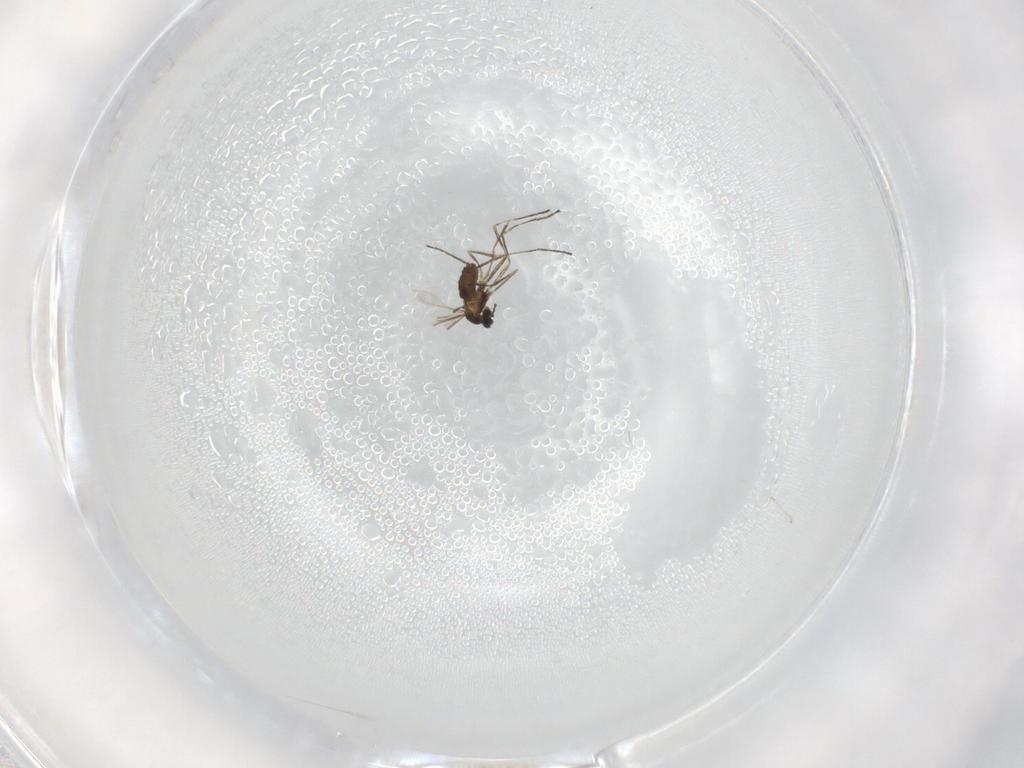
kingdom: Animalia
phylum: Arthropoda
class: Insecta
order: Diptera
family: Cecidomyiidae
